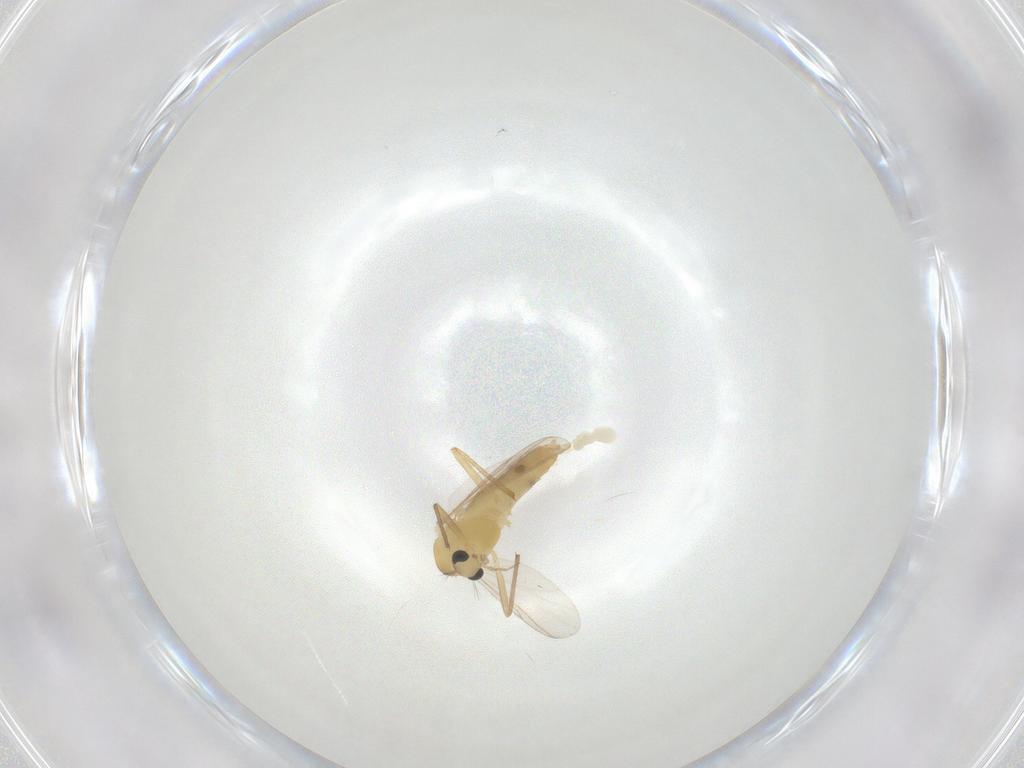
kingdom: Animalia
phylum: Arthropoda
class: Insecta
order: Diptera
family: Chironomidae
